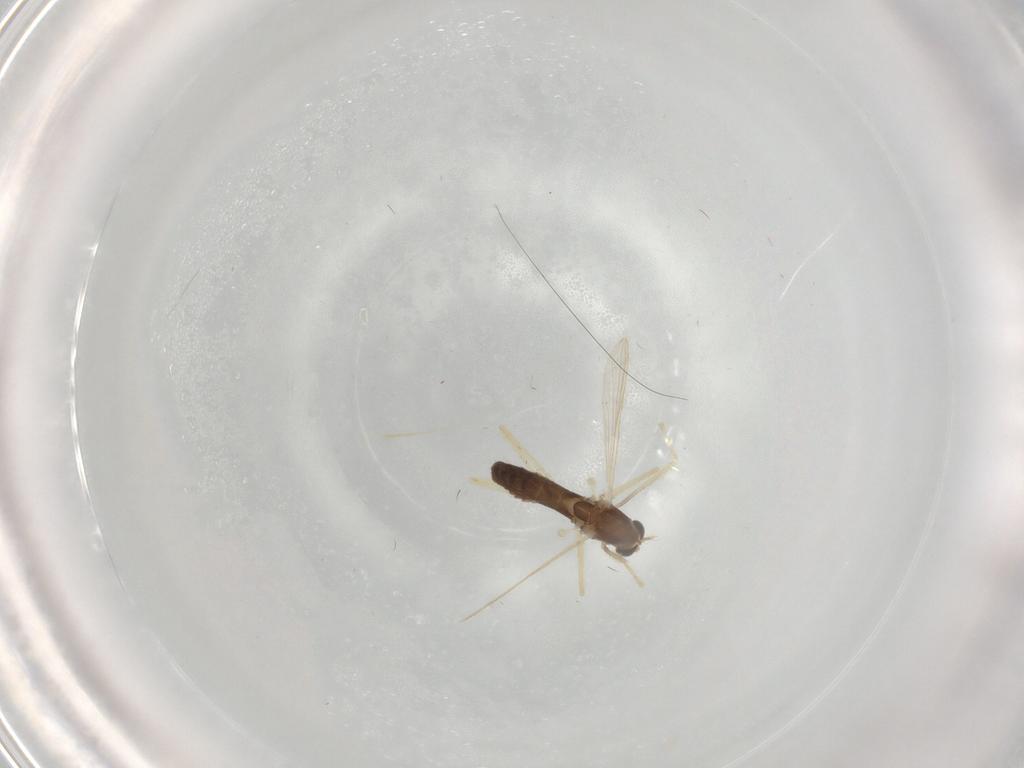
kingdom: Animalia
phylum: Arthropoda
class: Insecta
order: Diptera
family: Chironomidae
